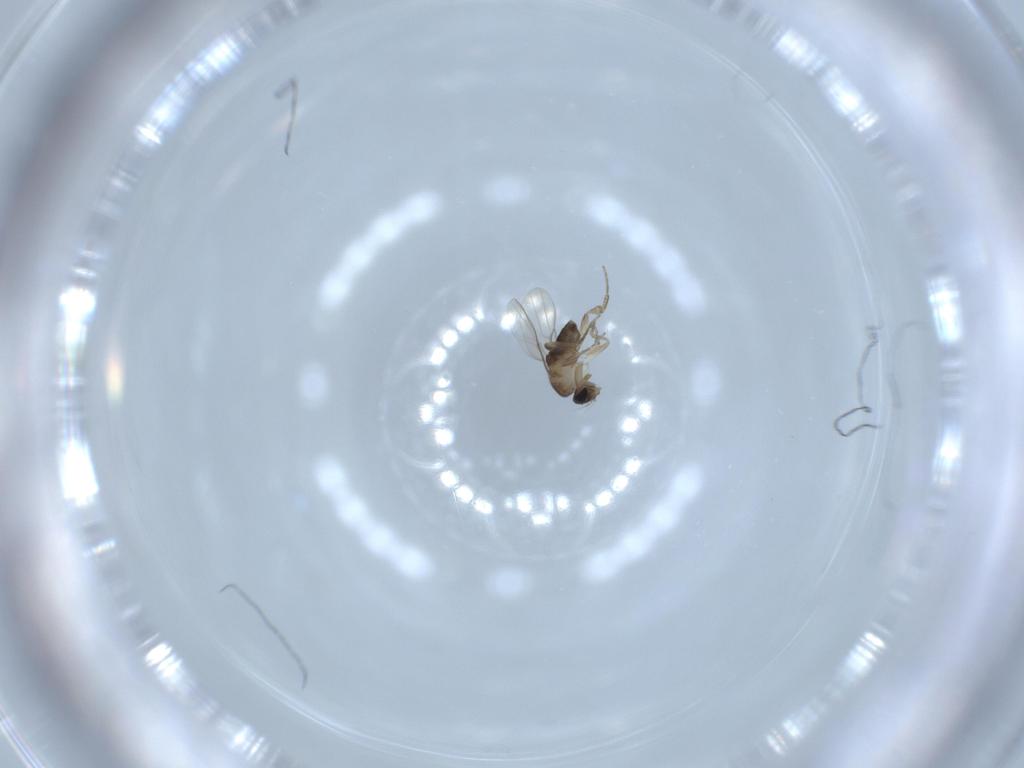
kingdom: Animalia
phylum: Arthropoda
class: Insecta
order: Diptera
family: Phoridae
